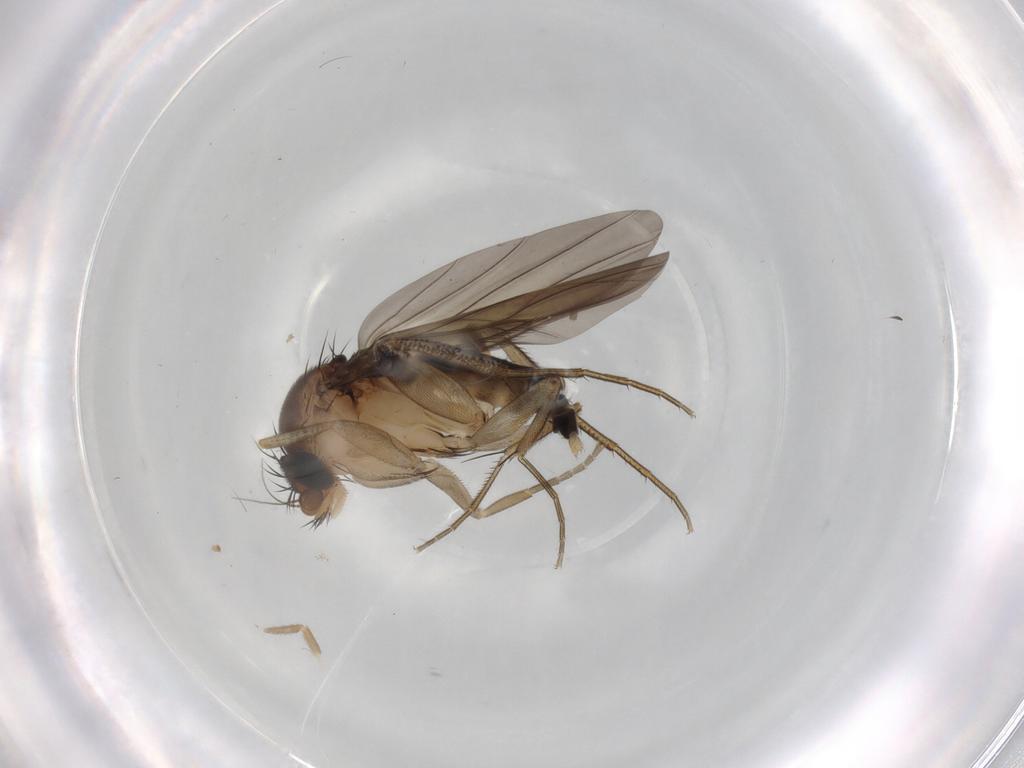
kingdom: Animalia
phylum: Arthropoda
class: Insecta
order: Diptera
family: Phoridae
